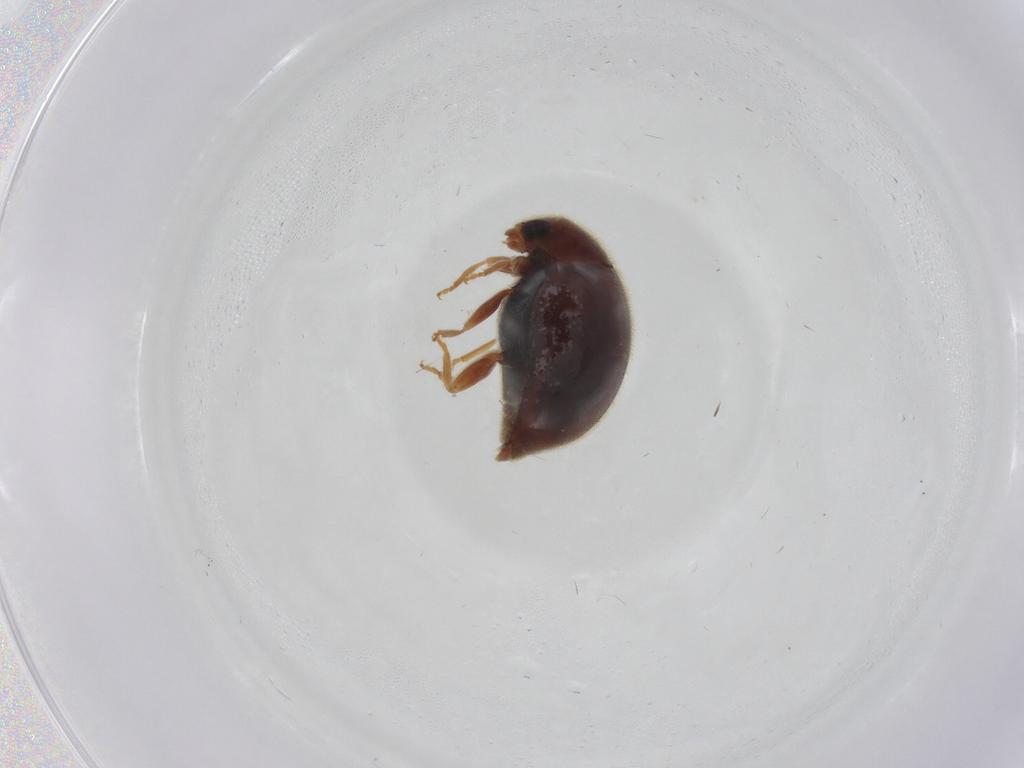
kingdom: Animalia
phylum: Arthropoda
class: Insecta
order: Coleoptera
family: Coccinellidae
